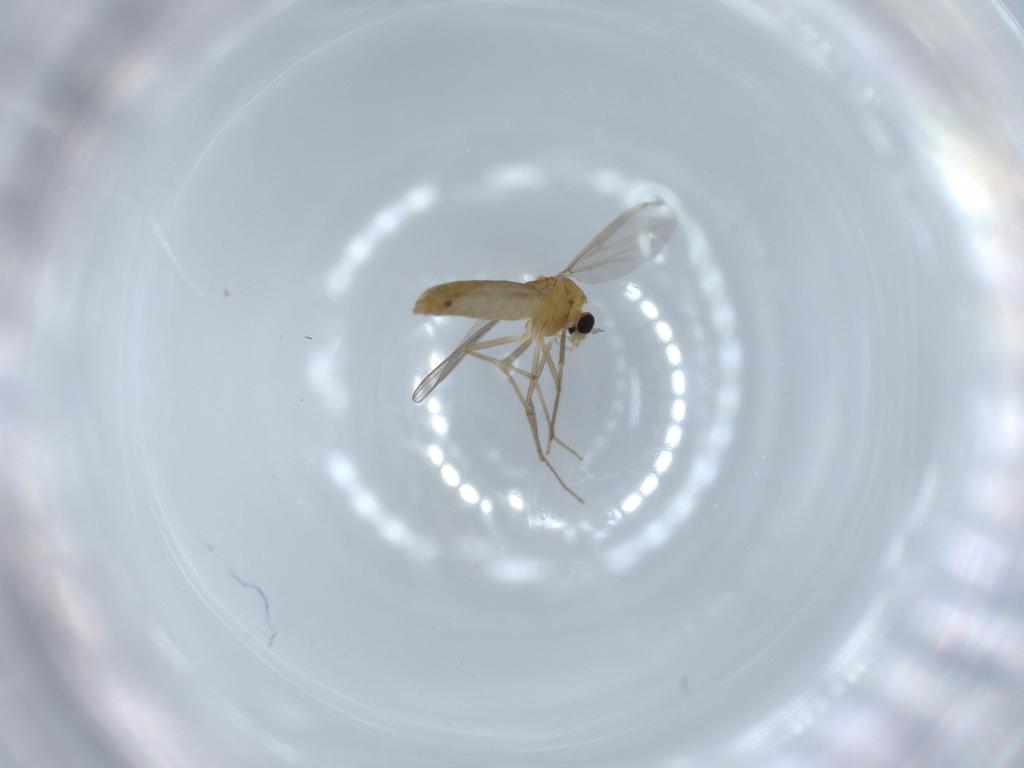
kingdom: Animalia
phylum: Arthropoda
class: Insecta
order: Diptera
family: Chironomidae
